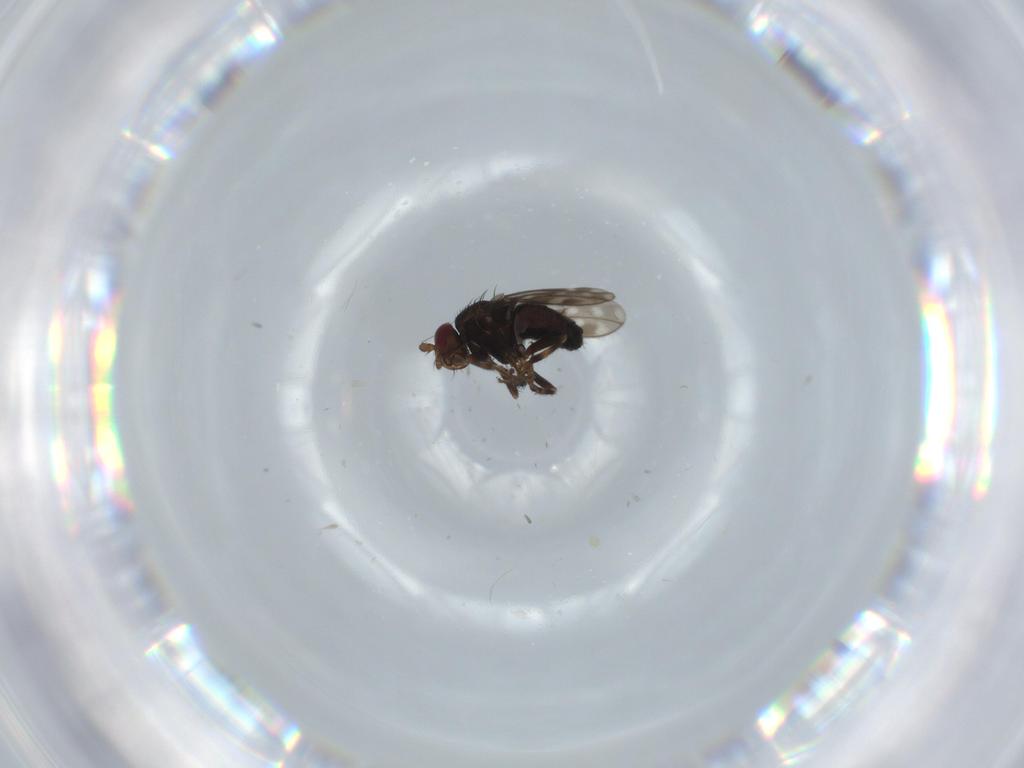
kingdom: Animalia
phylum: Arthropoda
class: Insecta
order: Diptera
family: Sphaeroceridae
